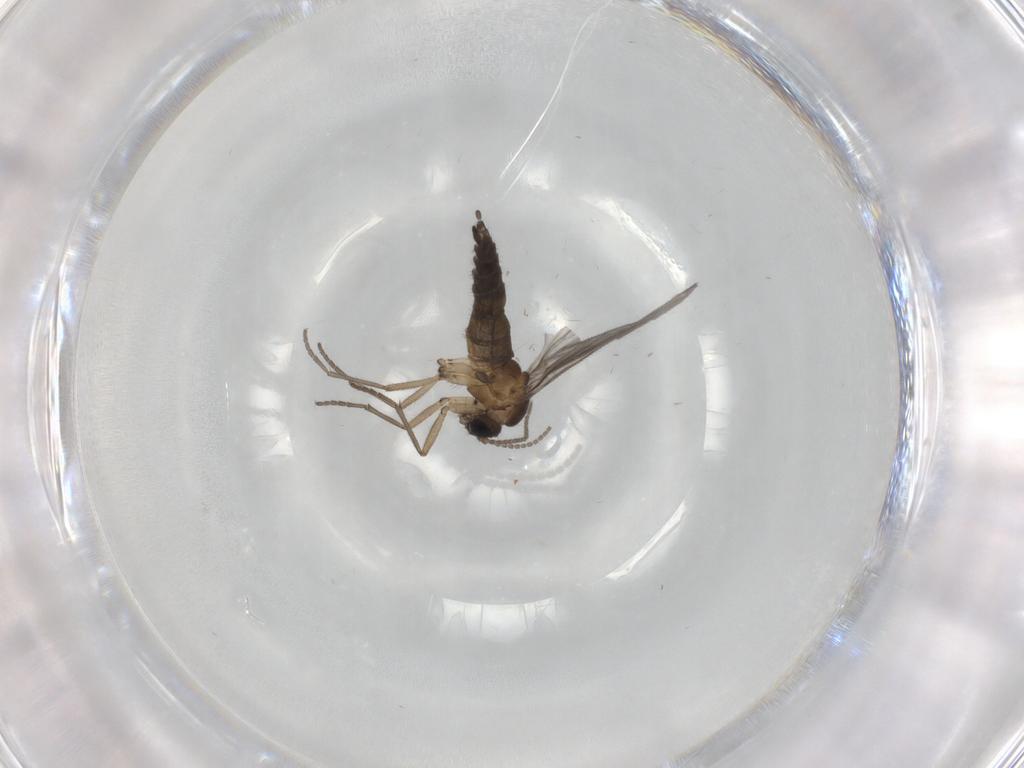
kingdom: Animalia
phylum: Arthropoda
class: Insecta
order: Diptera
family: Sciaridae
